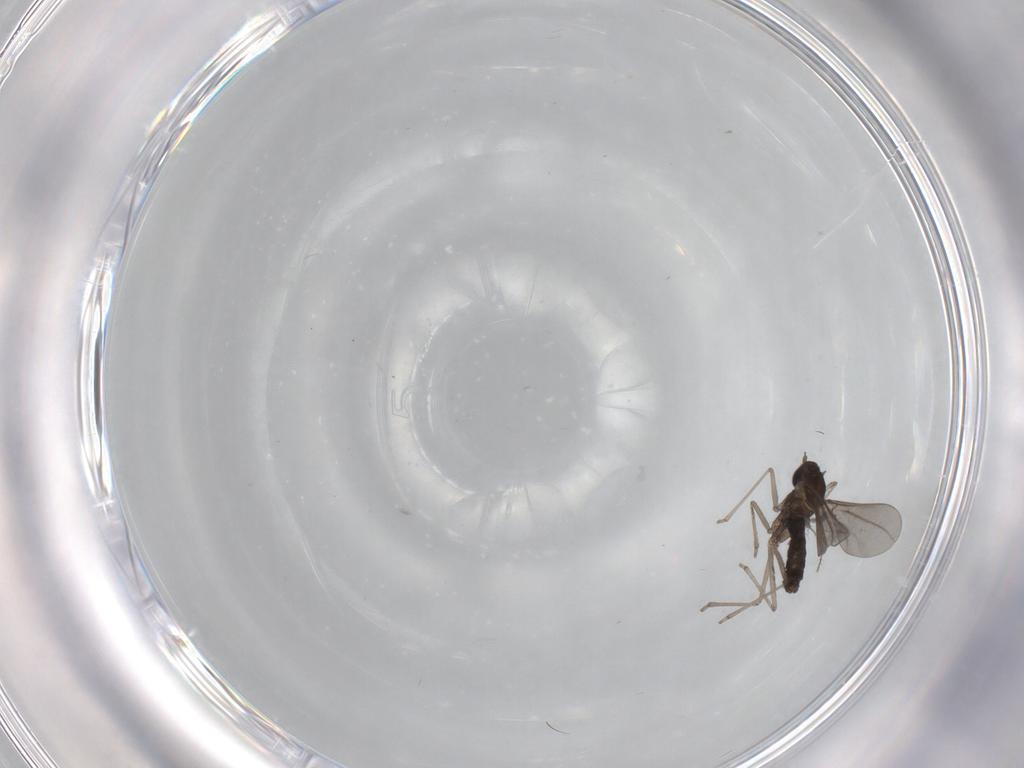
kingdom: Animalia
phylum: Arthropoda
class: Insecta
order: Diptera
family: Cecidomyiidae
